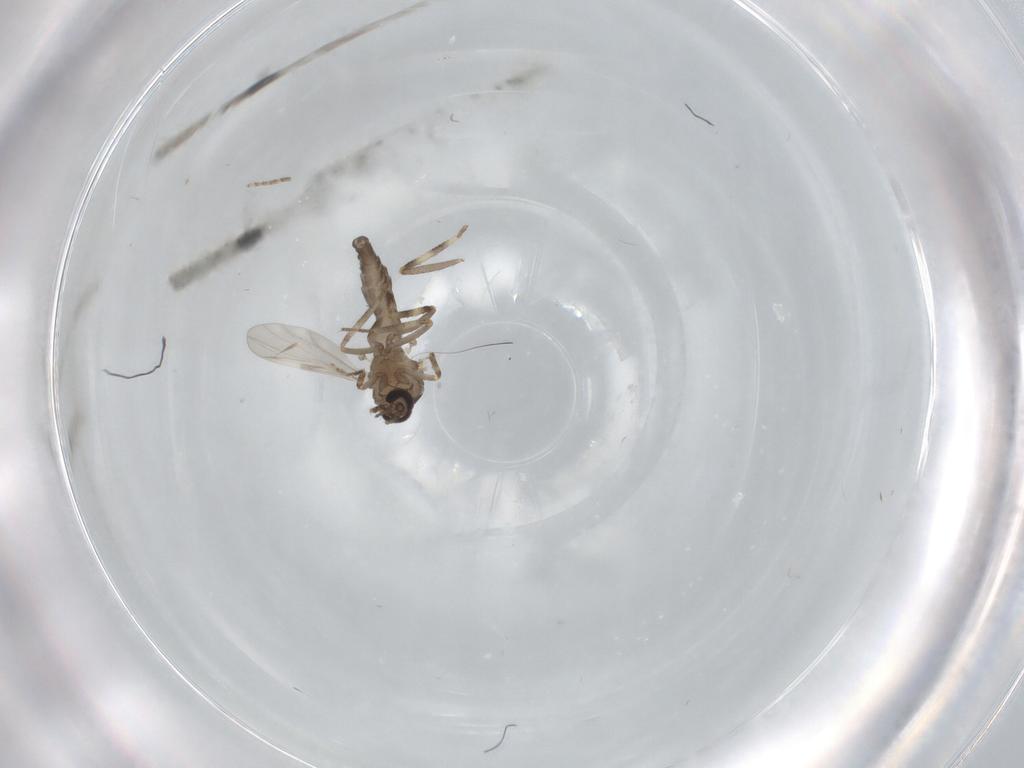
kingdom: Animalia
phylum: Arthropoda
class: Insecta
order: Diptera
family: Ceratopogonidae
